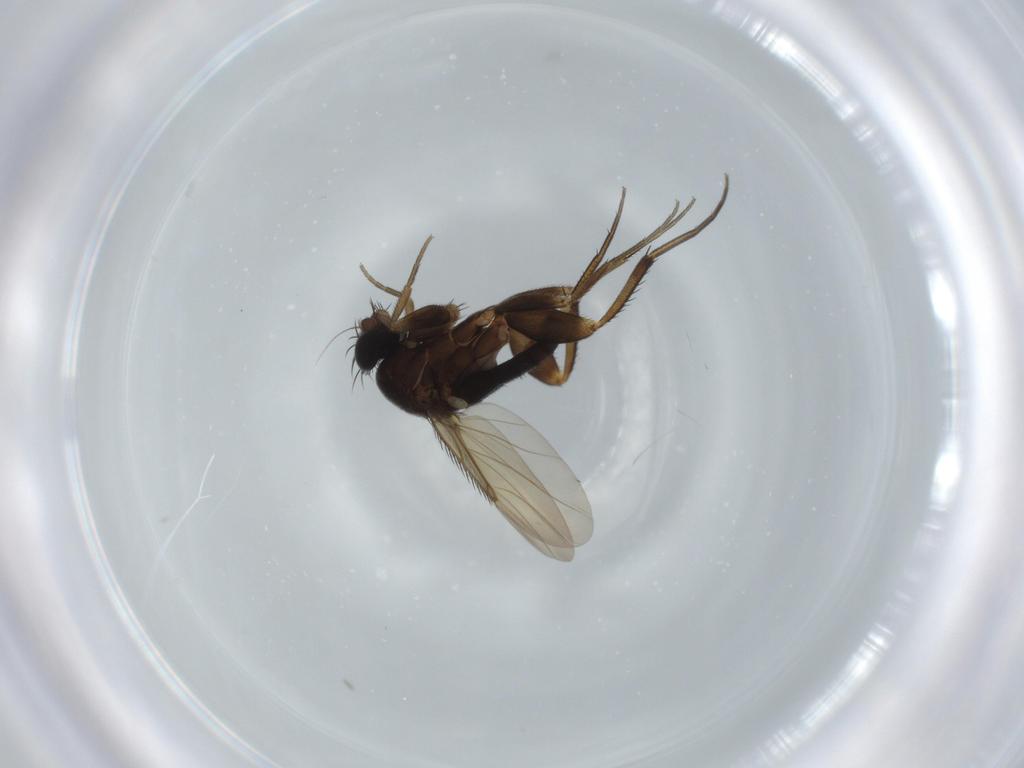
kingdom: Animalia
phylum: Arthropoda
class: Insecta
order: Diptera
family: Phoridae
